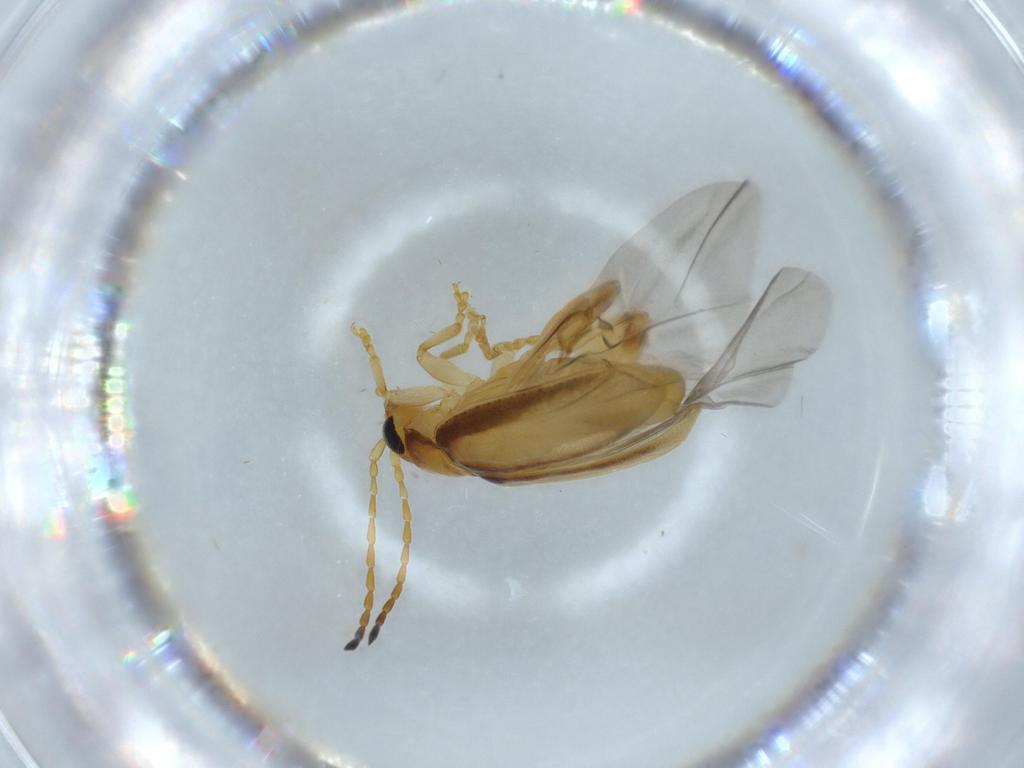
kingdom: Animalia
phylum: Arthropoda
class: Insecta
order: Coleoptera
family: Chrysomelidae
